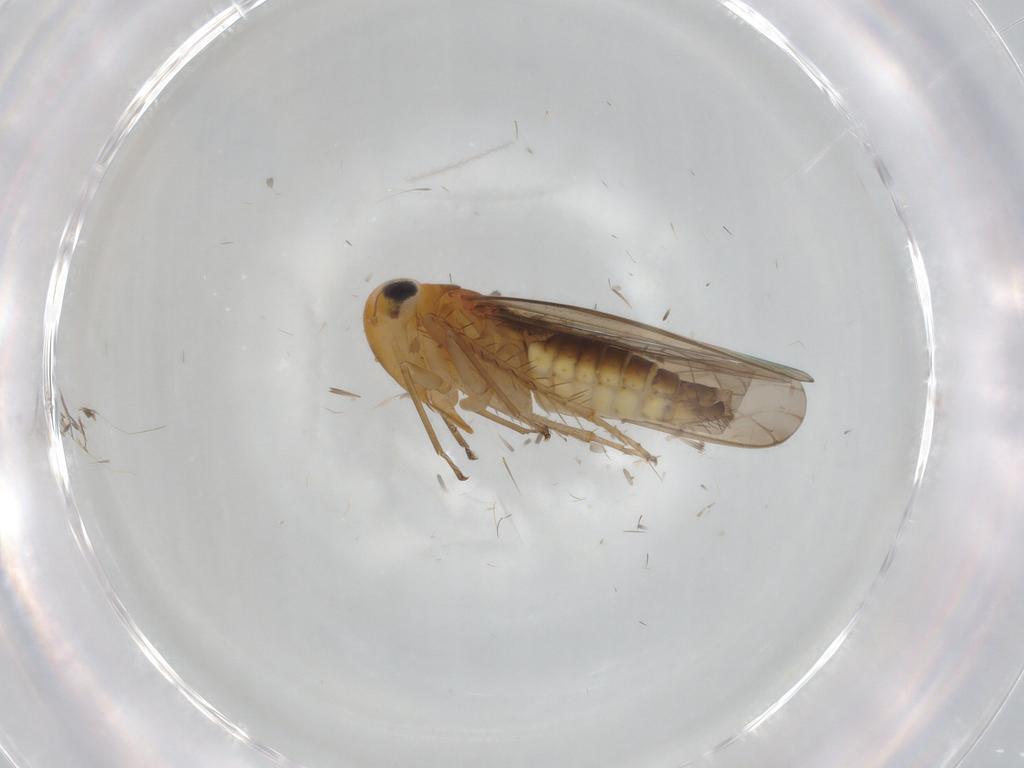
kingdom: Animalia
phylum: Arthropoda
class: Insecta
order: Hemiptera
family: Cicadellidae
